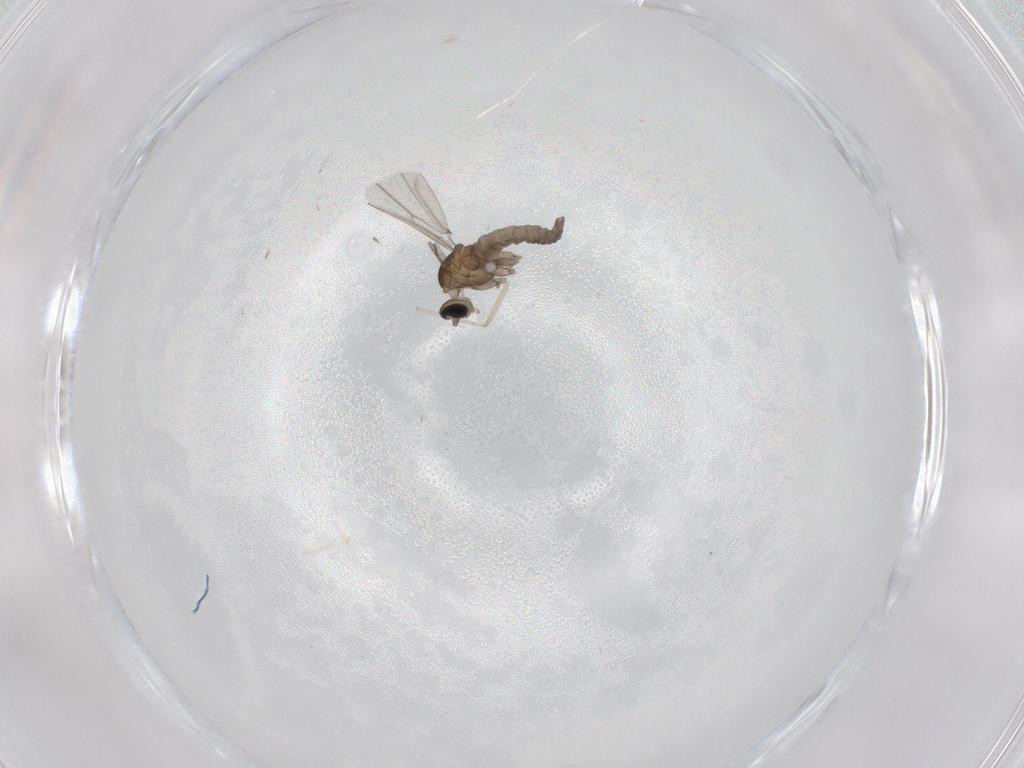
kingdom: Animalia
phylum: Arthropoda
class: Insecta
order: Diptera
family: Cecidomyiidae
